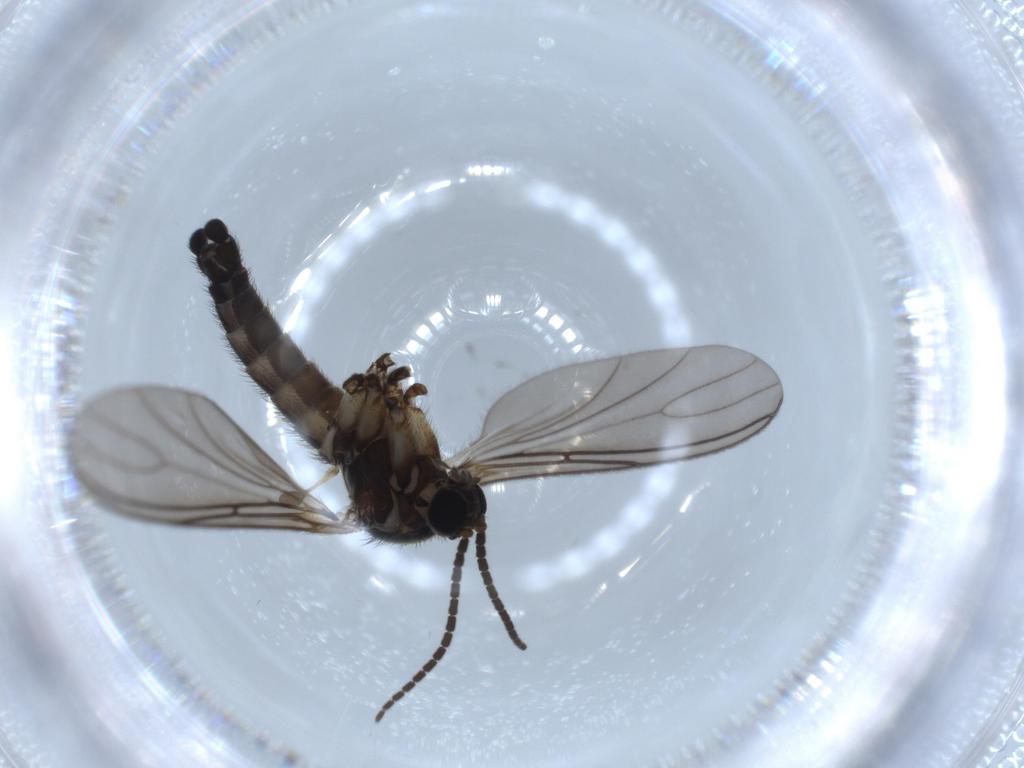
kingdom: Animalia
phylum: Arthropoda
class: Insecta
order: Diptera
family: Sciaridae
